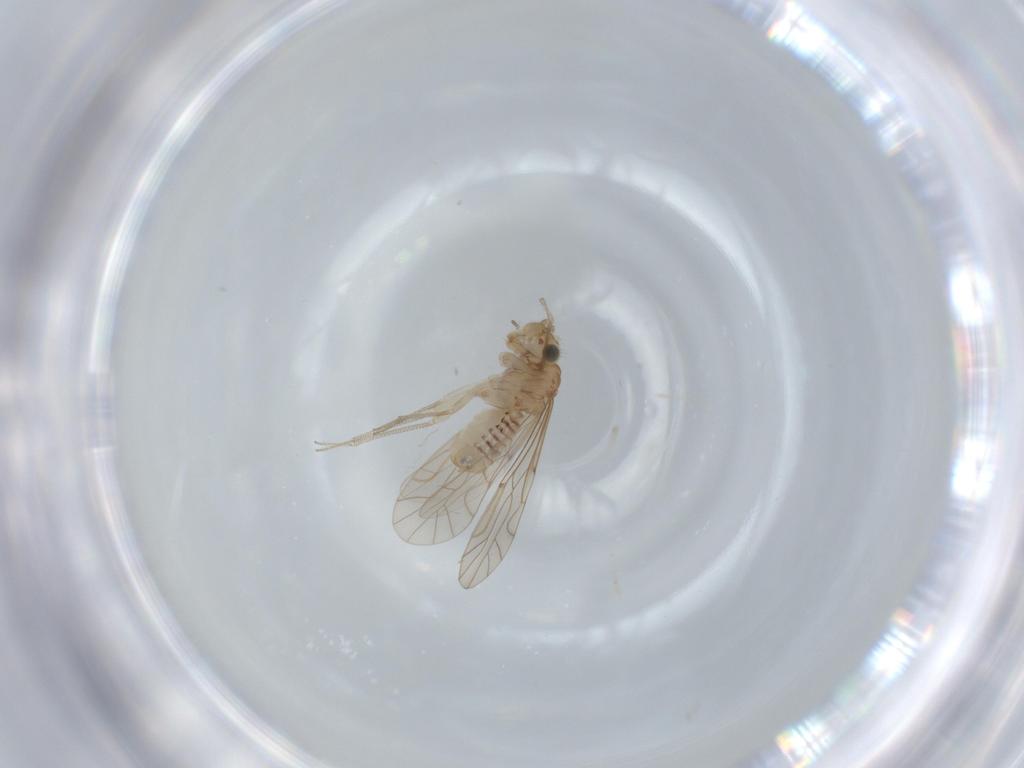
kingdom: Animalia
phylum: Arthropoda
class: Insecta
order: Psocodea
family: Lachesillidae
